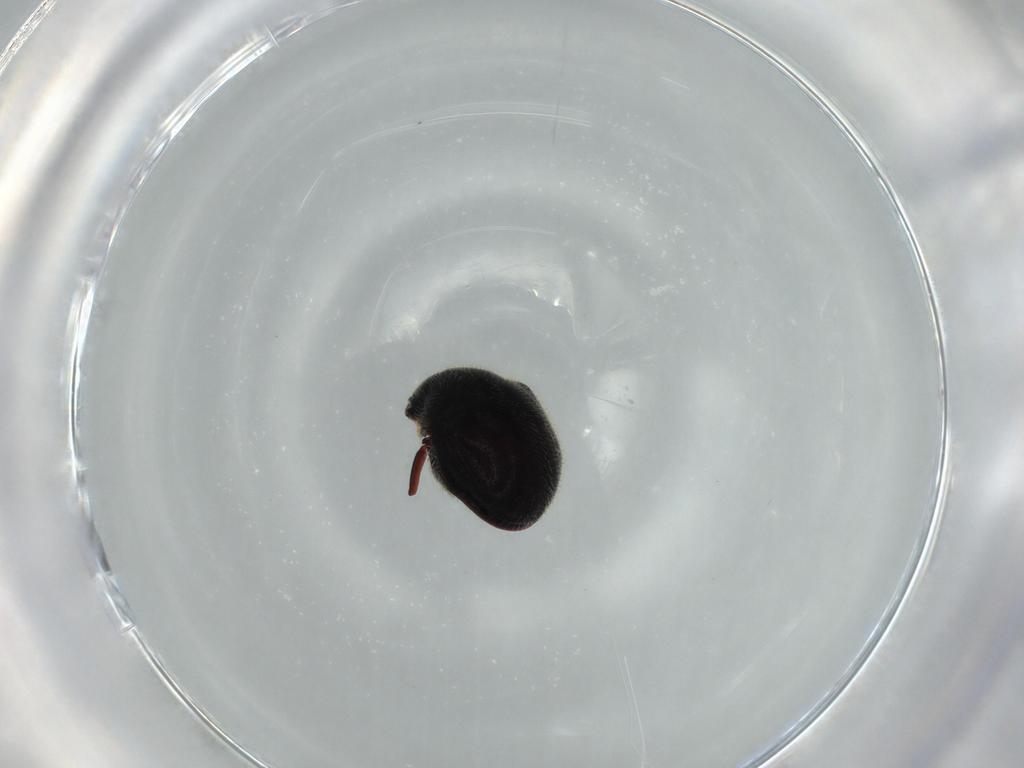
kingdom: Animalia
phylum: Arthropoda
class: Insecta
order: Coleoptera
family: Ptinidae
